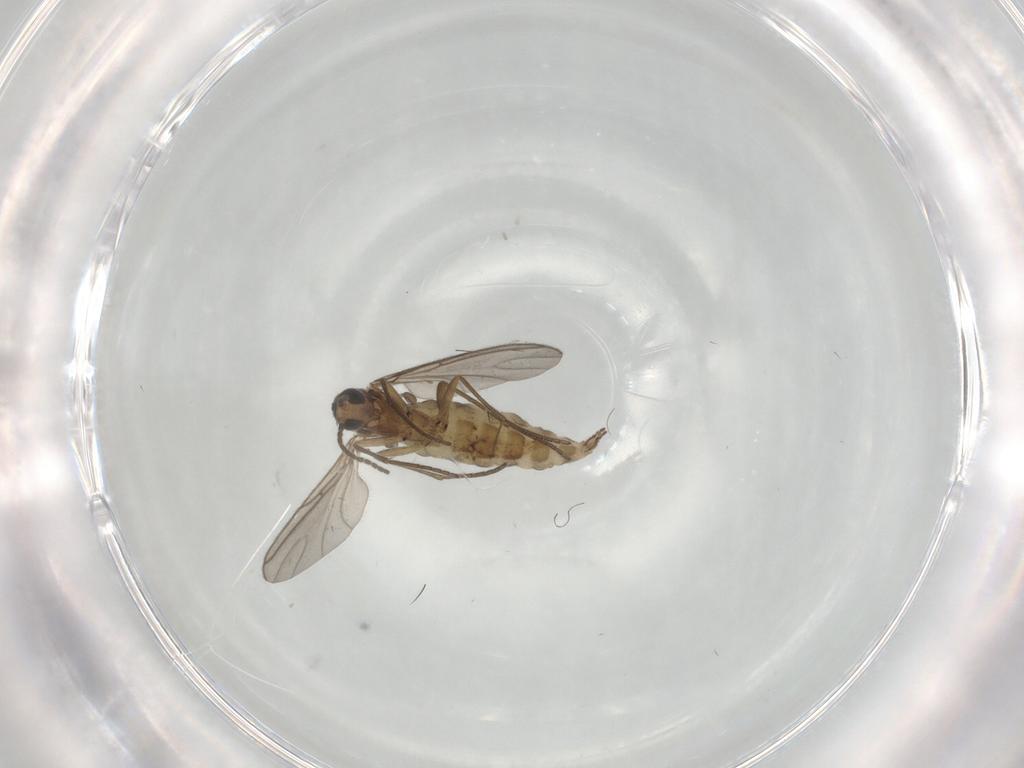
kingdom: Animalia
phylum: Arthropoda
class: Insecta
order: Diptera
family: Sciaridae
